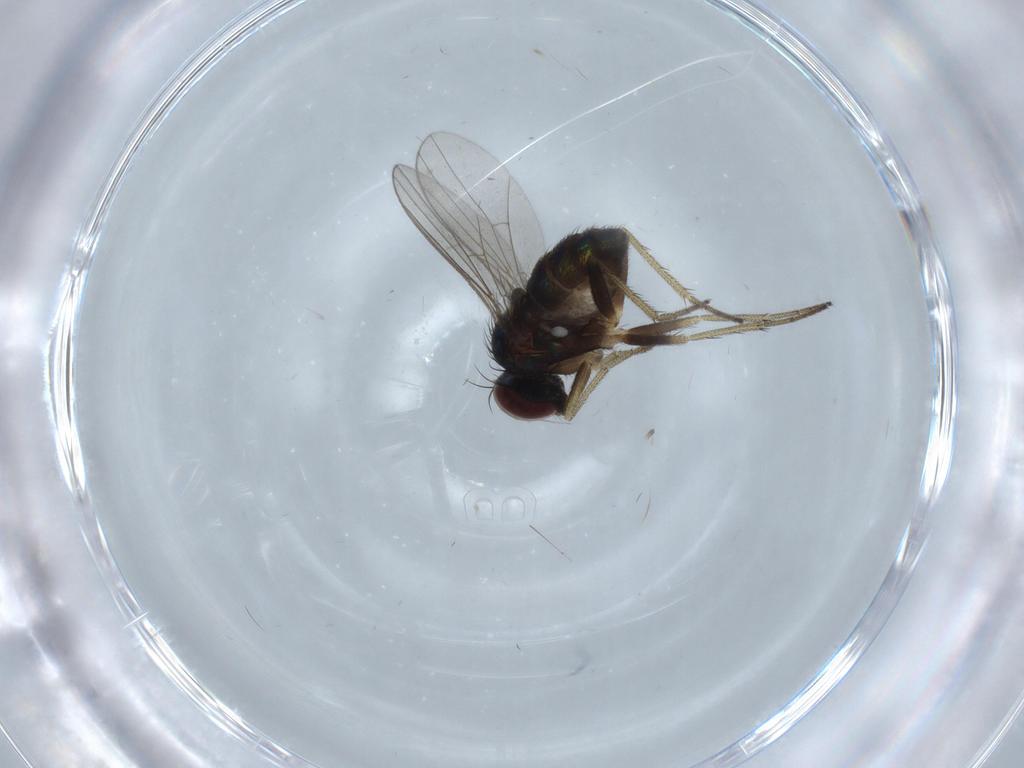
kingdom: Animalia
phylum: Arthropoda
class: Insecta
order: Diptera
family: Dolichopodidae
